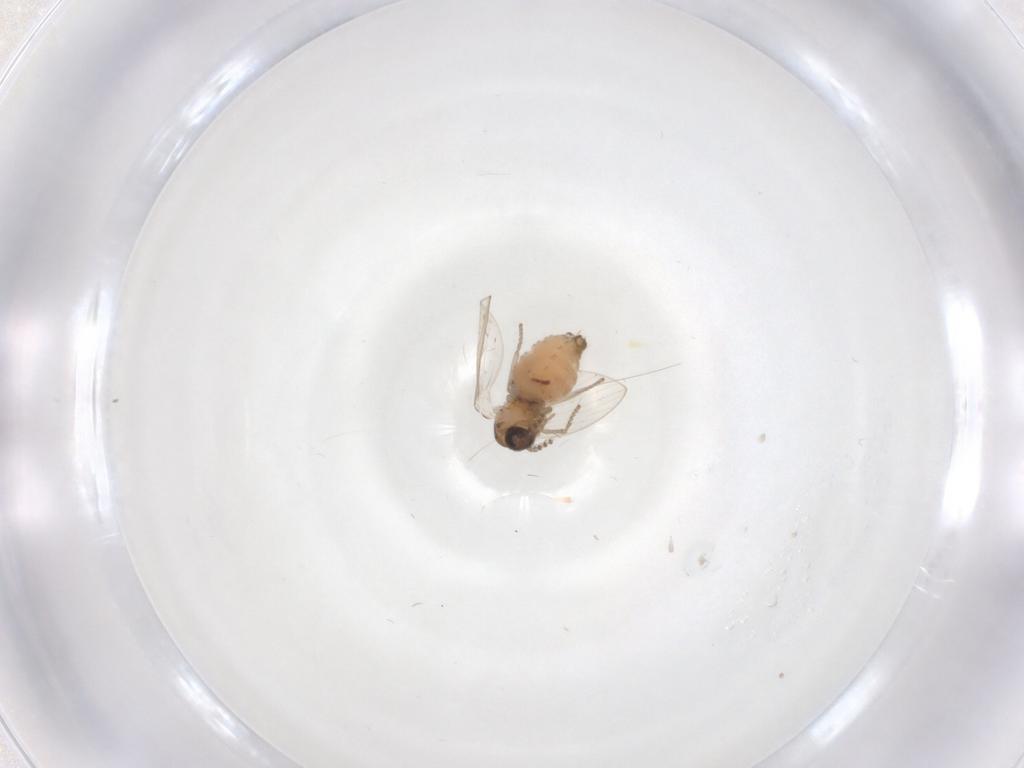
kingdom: Animalia
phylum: Arthropoda
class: Insecta
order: Diptera
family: Psychodidae
